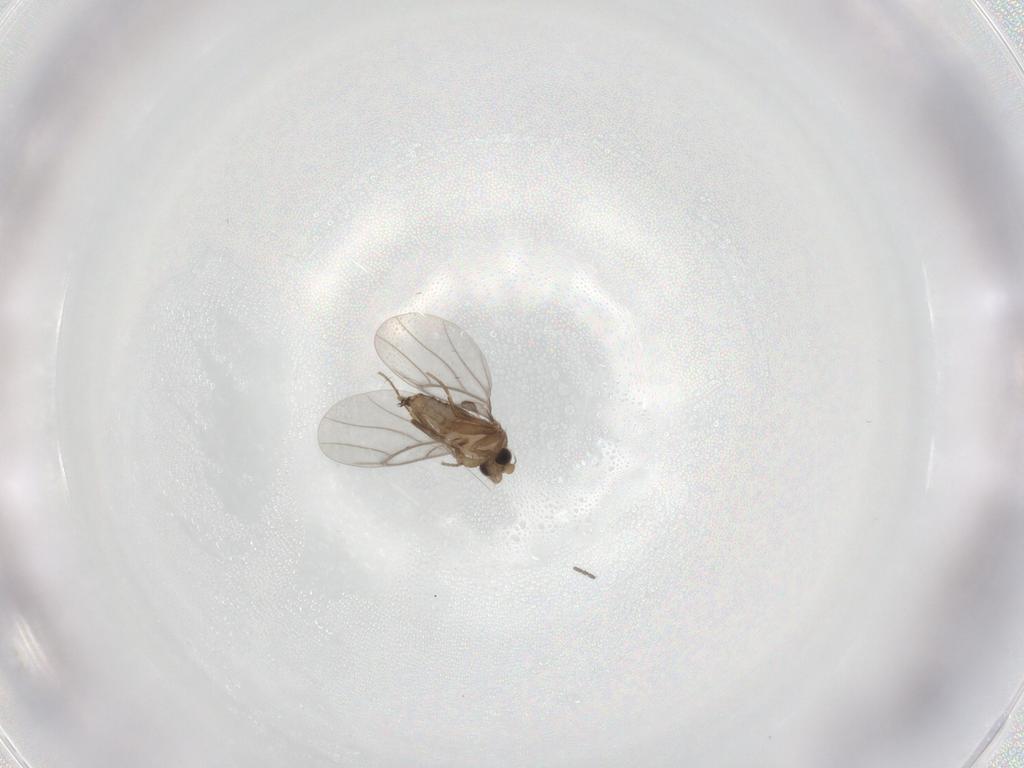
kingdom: Animalia
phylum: Arthropoda
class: Insecta
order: Diptera
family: Sciaridae
